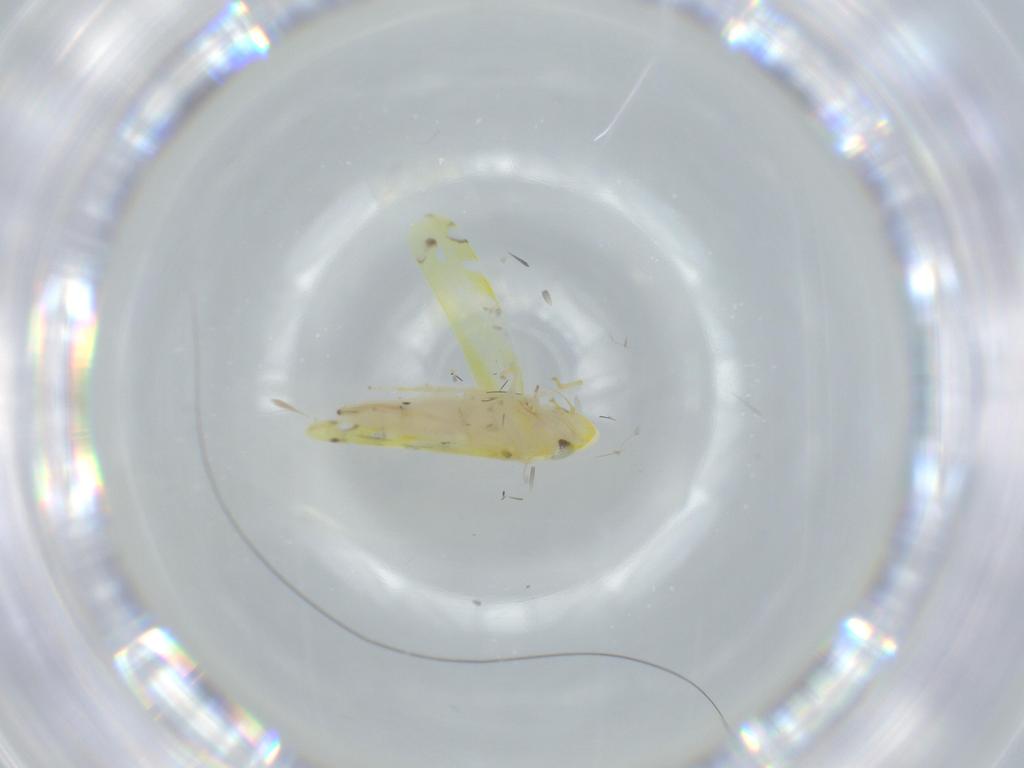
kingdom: Animalia
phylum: Arthropoda
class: Insecta
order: Hemiptera
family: Cicadellidae
